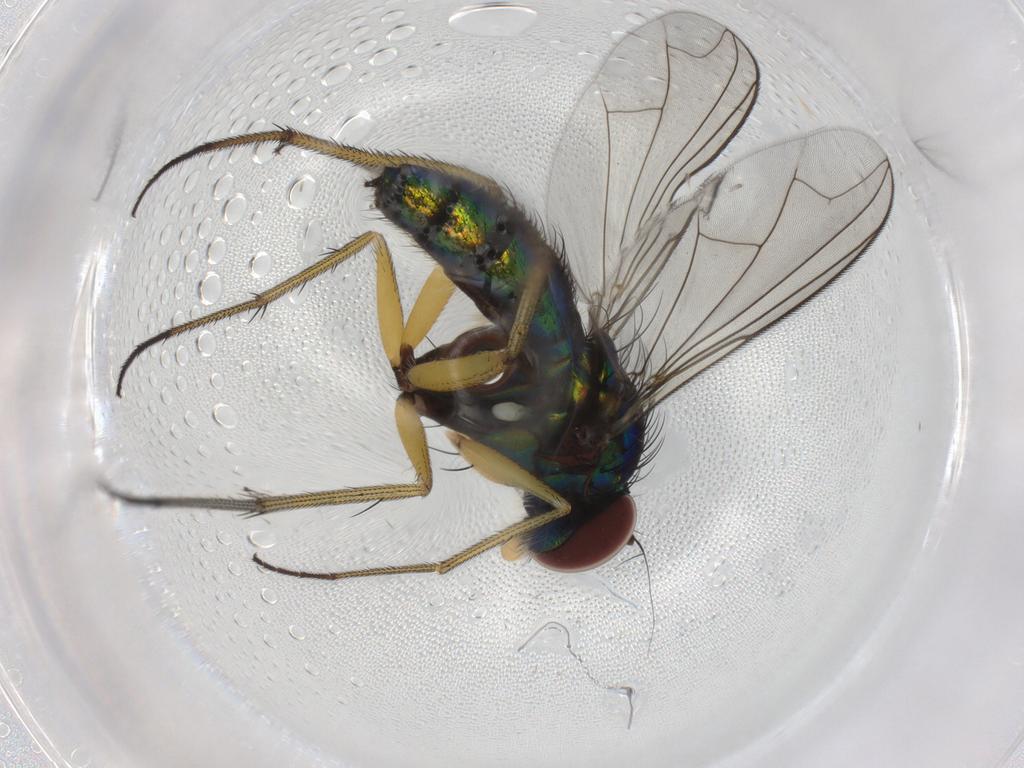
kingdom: Animalia
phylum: Arthropoda
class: Insecta
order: Diptera
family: Dolichopodidae
